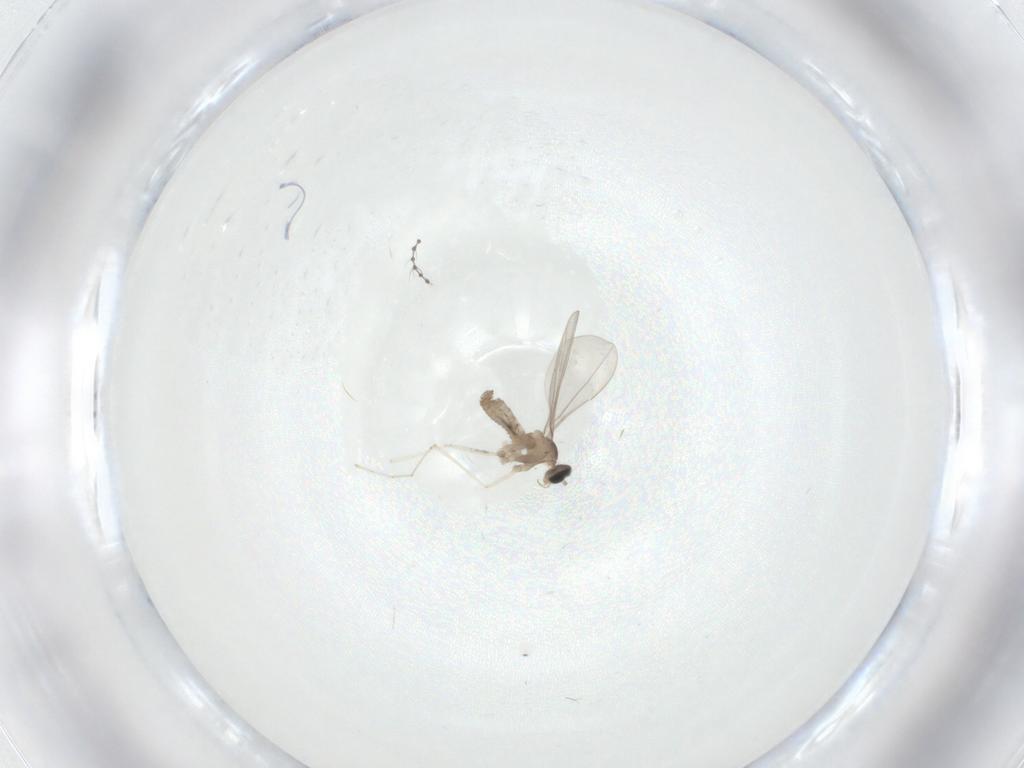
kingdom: Animalia
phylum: Arthropoda
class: Insecta
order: Diptera
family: Cecidomyiidae
